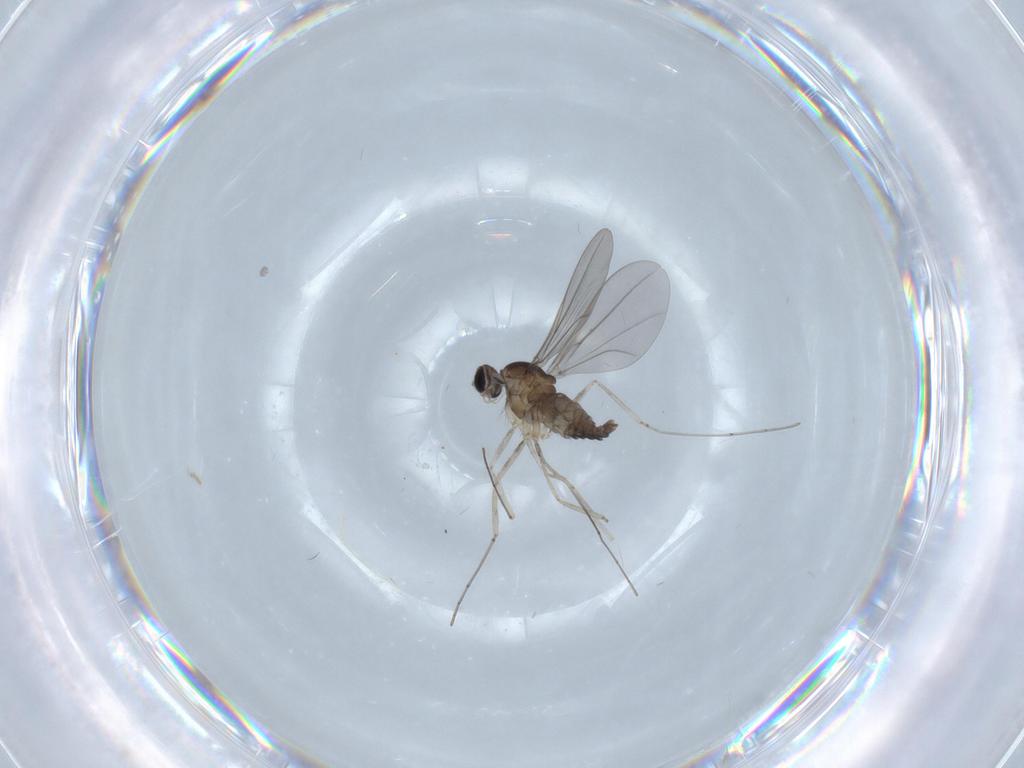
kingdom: Animalia
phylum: Arthropoda
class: Insecta
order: Diptera
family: Cecidomyiidae
